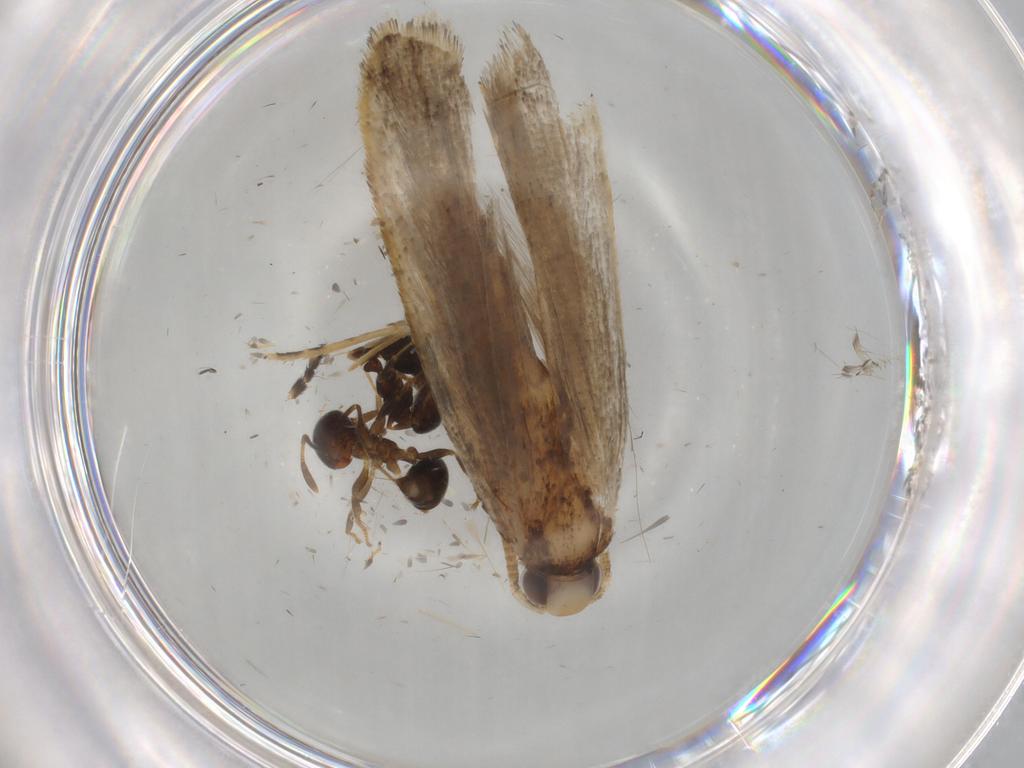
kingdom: Animalia
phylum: Arthropoda
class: Insecta
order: Lepidoptera
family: Autostichidae
